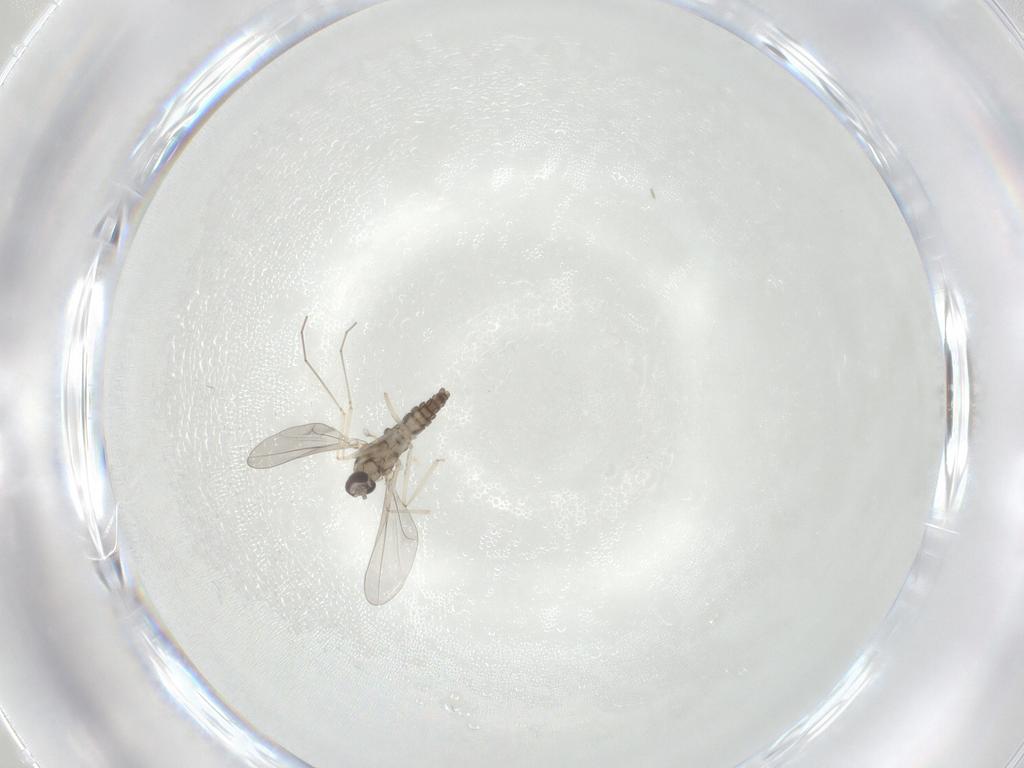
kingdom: Animalia
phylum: Arthropoda
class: Insecta
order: Diptera
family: Cecidomyiidae
